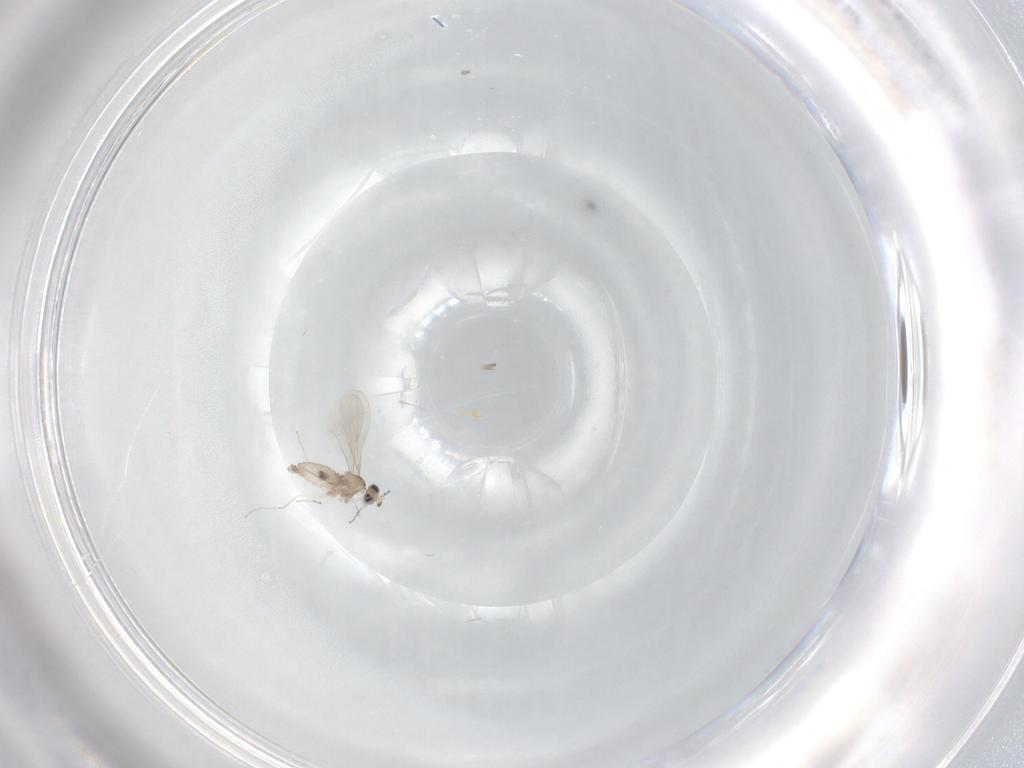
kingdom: Animalia
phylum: Arthropoda
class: Insecta
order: Diptera
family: Cecidomyiidae
